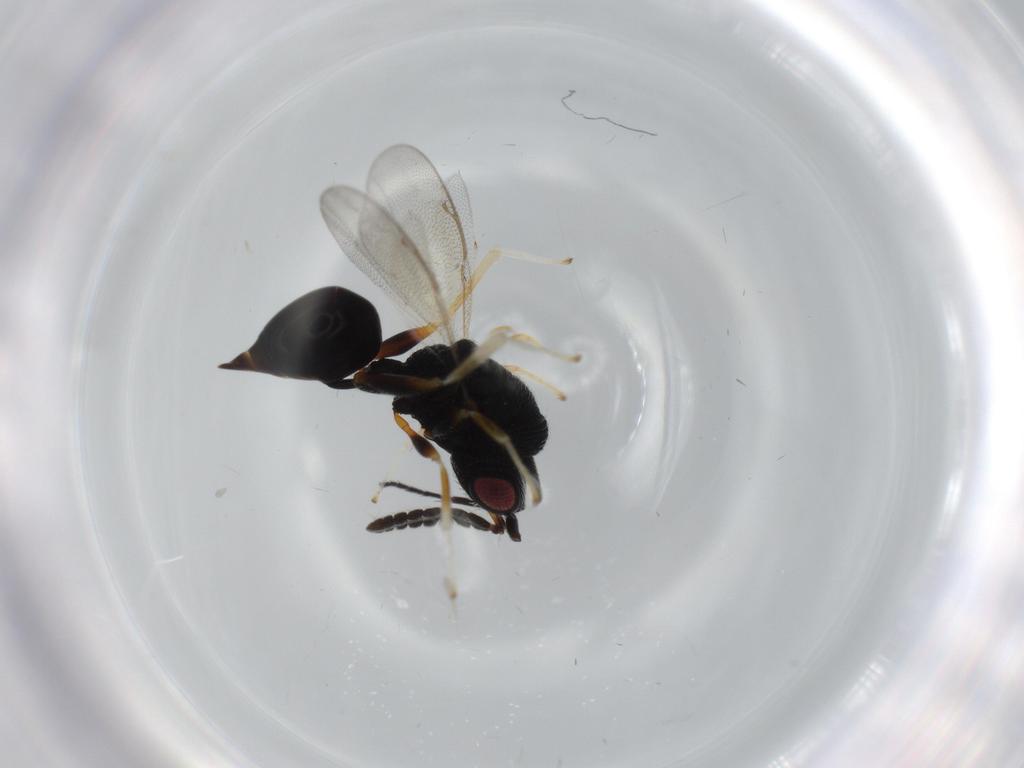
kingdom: Animalia
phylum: Arthropoda
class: Insecta
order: Hymenoptera
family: Eurytomidae
